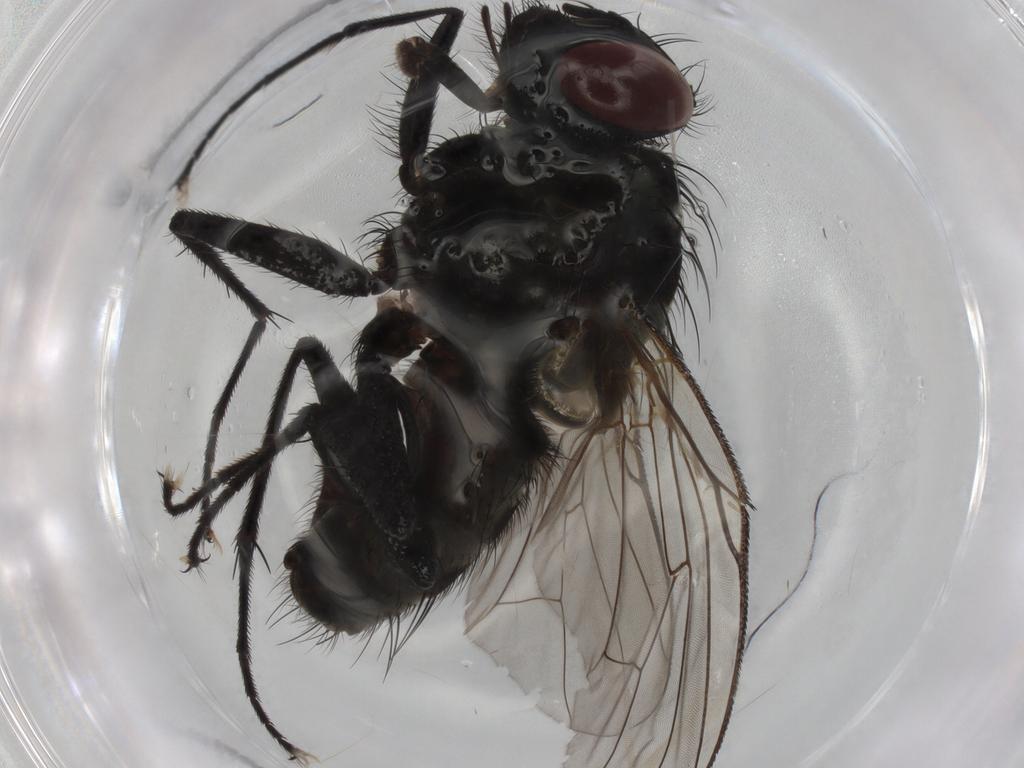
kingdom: Animalia
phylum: Arthropoda
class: Insecta
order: Diptera
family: Muscidae
